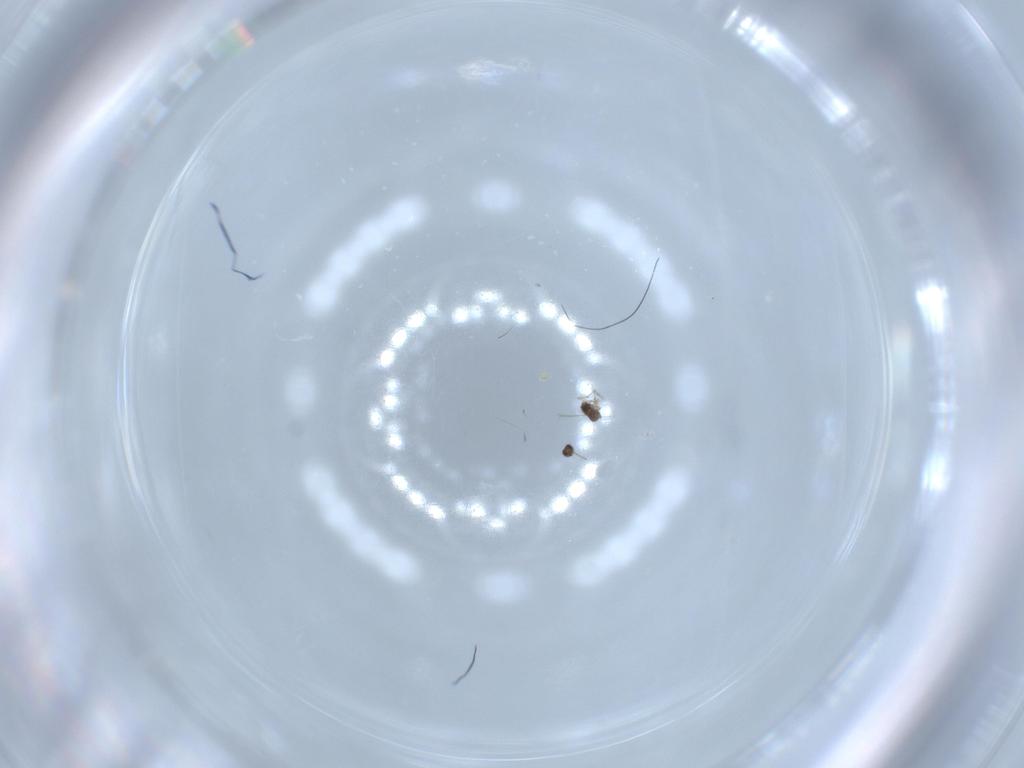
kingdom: Animalia
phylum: Arthropoda
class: Insecta
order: Hymenoptera
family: Mymaridae
